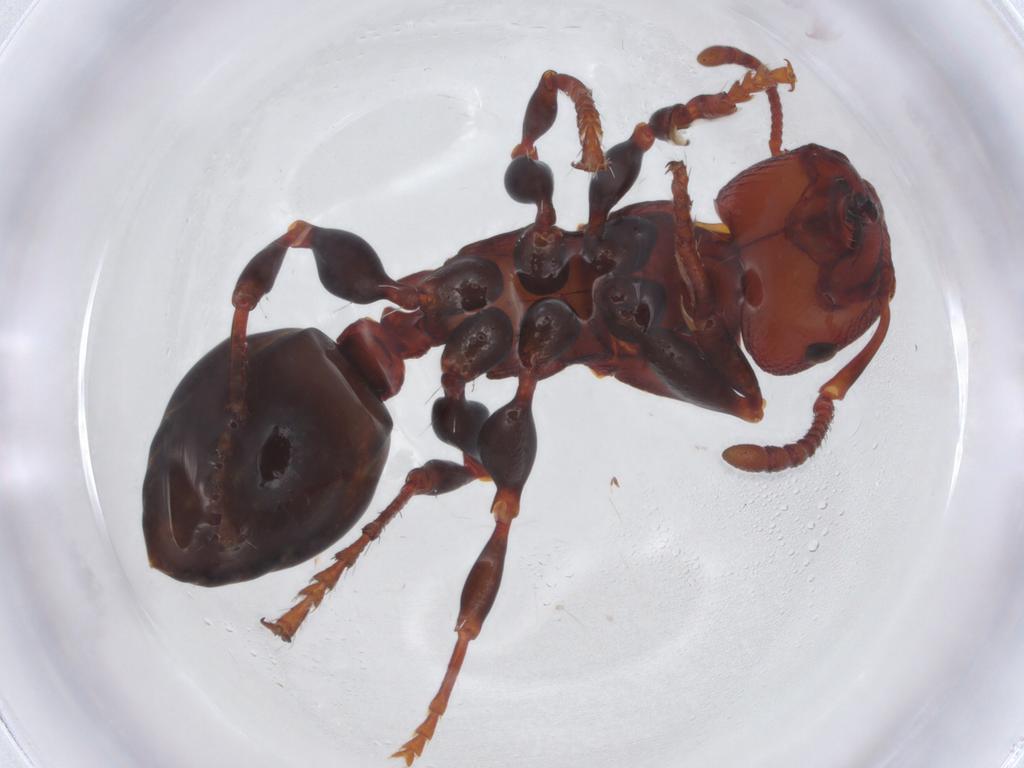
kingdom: Animalia
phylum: Arthropoda
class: Insecta
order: Hymenoptera
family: Formicidae
